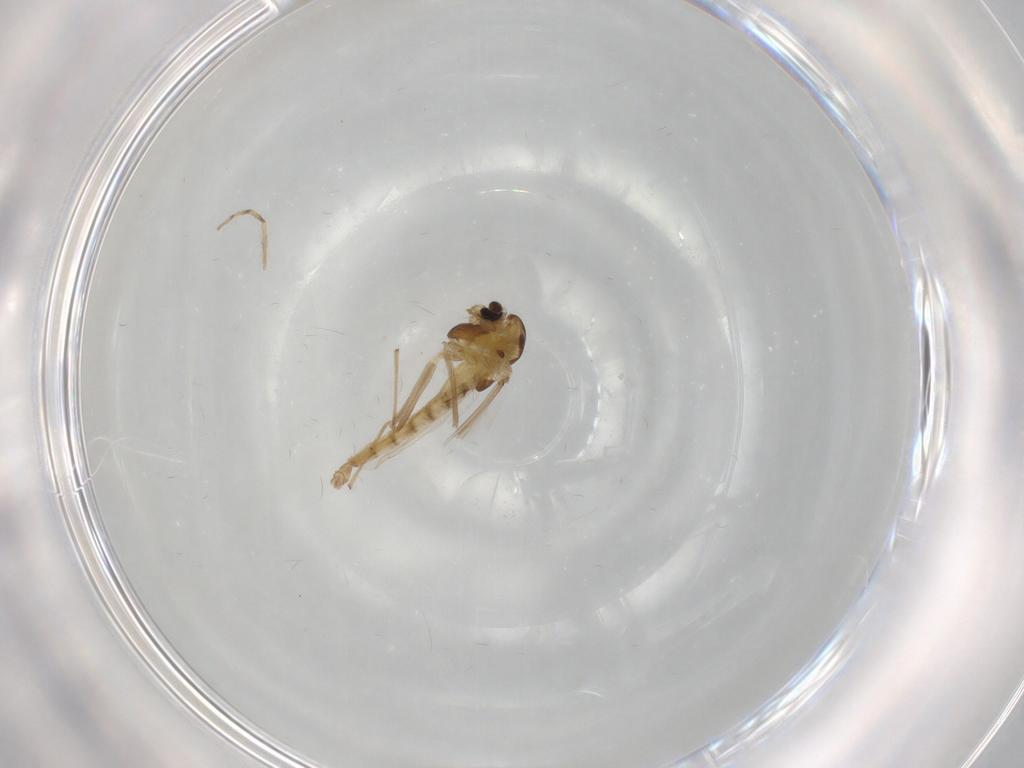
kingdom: Animalia
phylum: Arthropoda
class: Insecta
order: Diptera
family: Chironomidae
